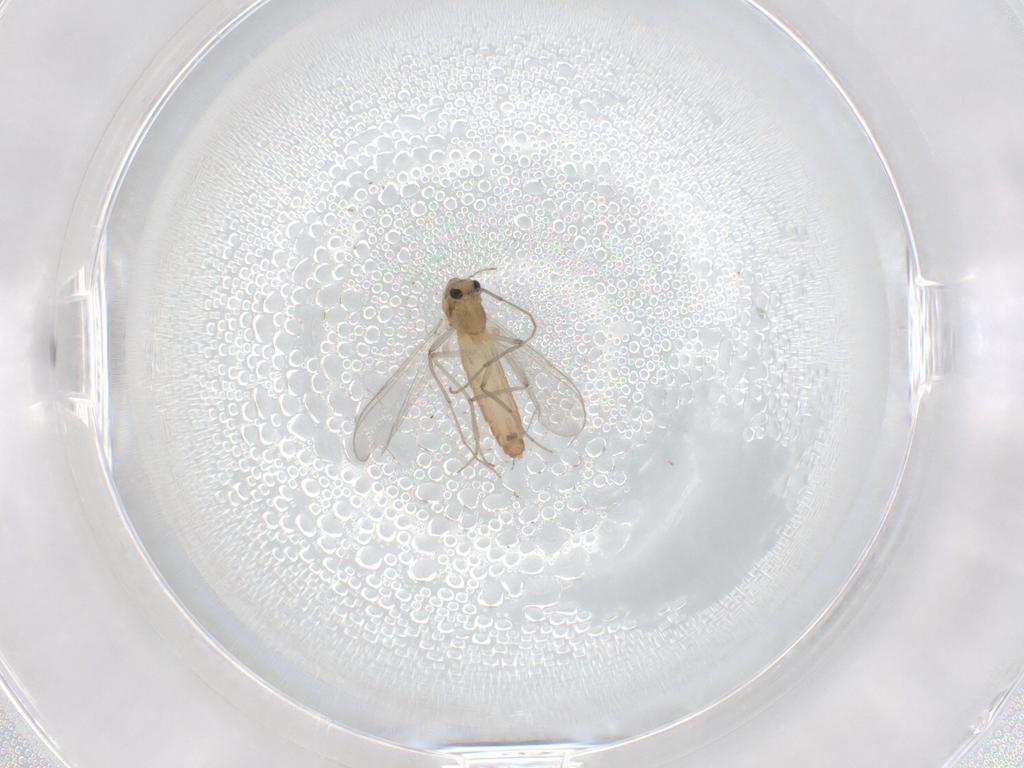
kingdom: Animalia
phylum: Arthropoda
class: Insecta
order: Diptera
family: Chironomidae
